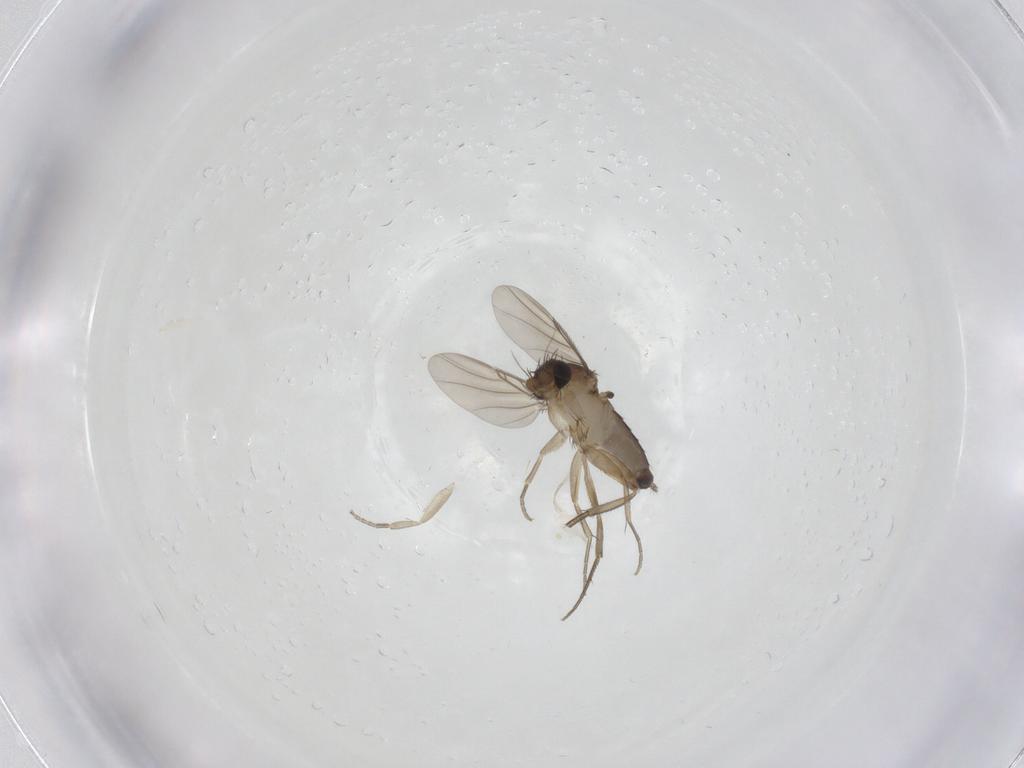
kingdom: Animalia
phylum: Arthropoda
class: Insecta
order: Diptera
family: Phoridae
